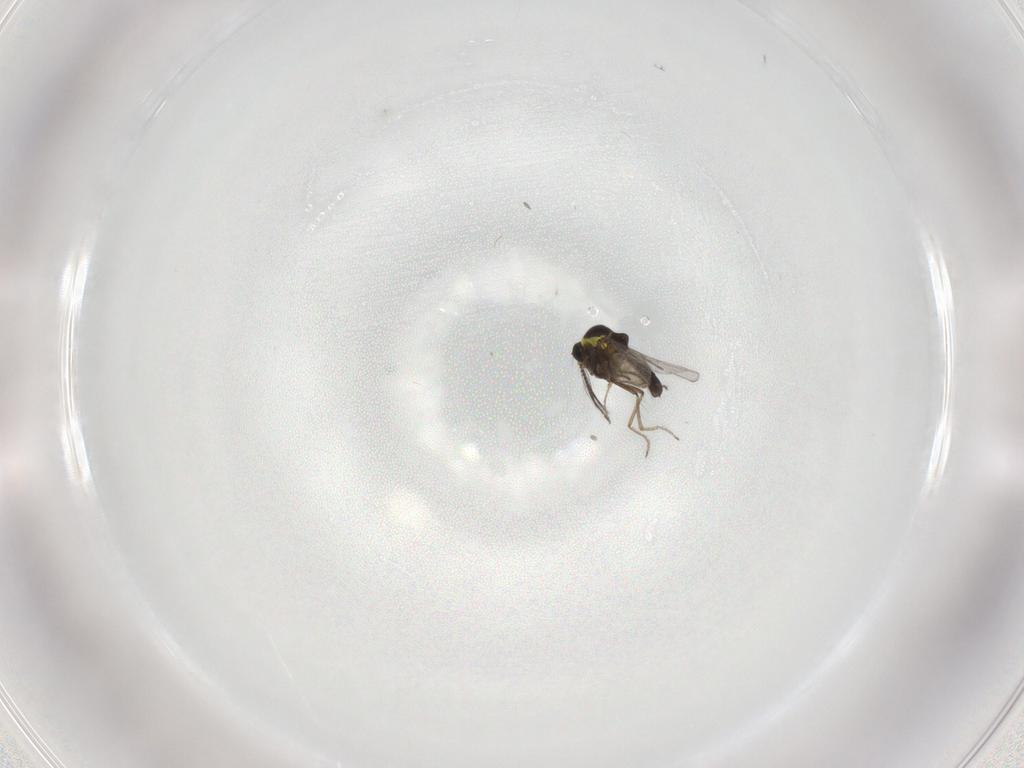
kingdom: Animalia
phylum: Arthropoda
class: Insecta
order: Diptera
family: Ceratopogonidae
